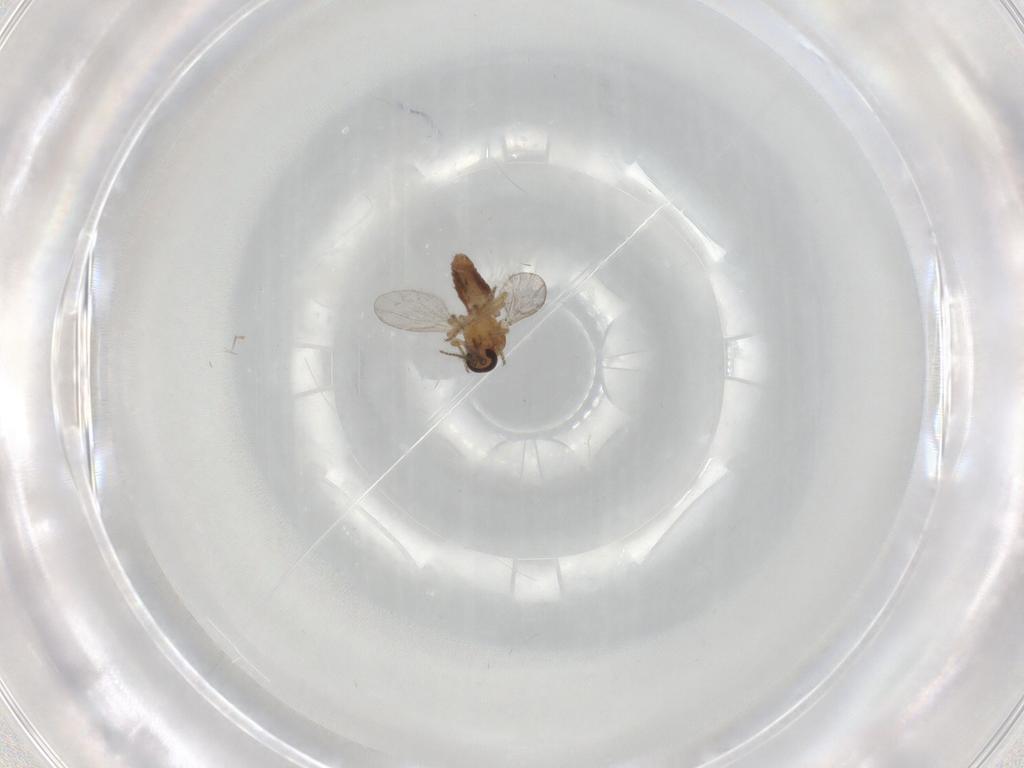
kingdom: Animalia
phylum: Arthropoda
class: Insecta
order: Diptera
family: Ceratopogonidae
